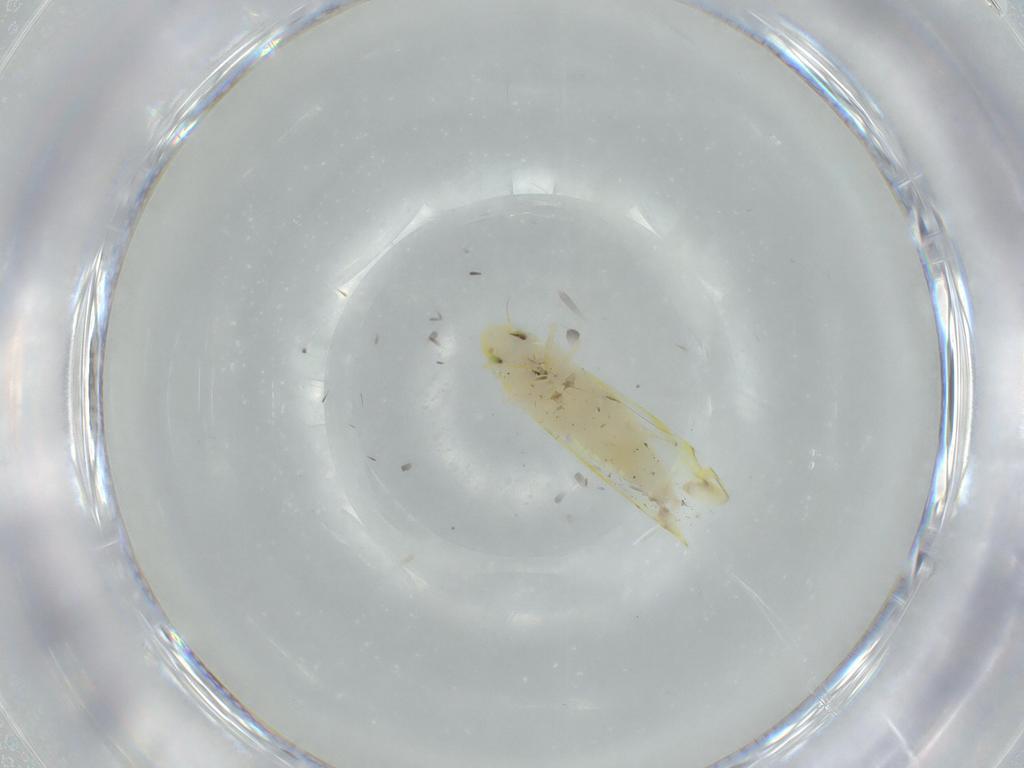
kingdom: Animalia
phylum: Arthropoda
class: Insecta
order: Hemiptera
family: Cicadellidae
